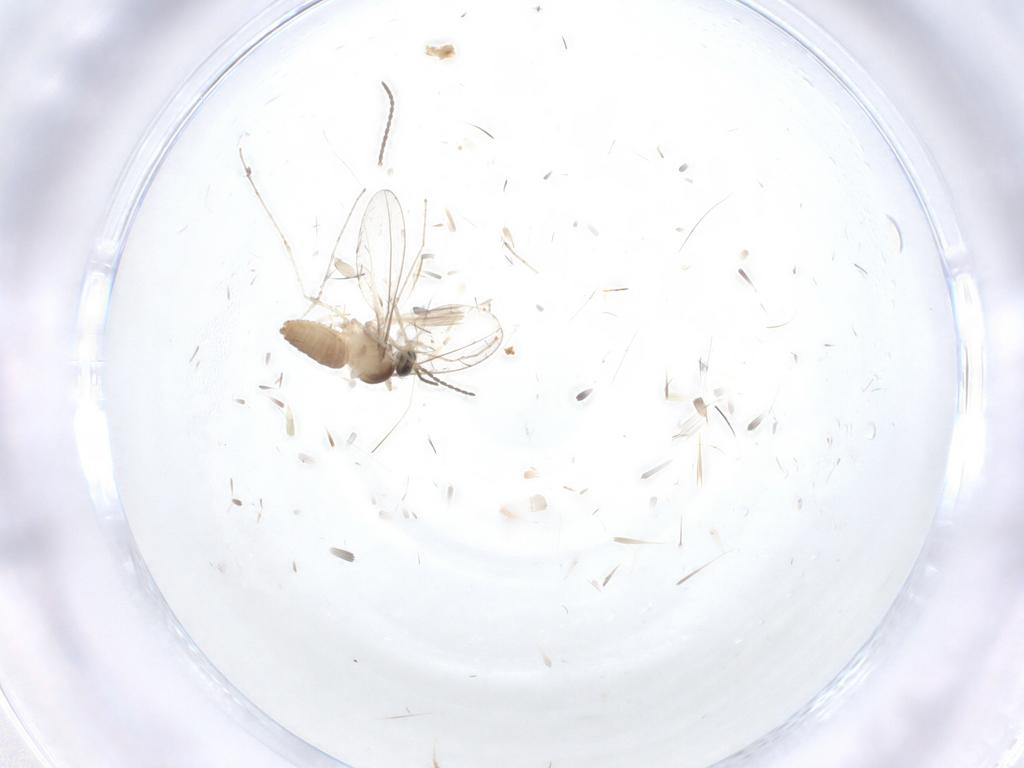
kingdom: Animalia
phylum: Arthropoda
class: Insecta
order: Diptera
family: Cecidomyiidae
